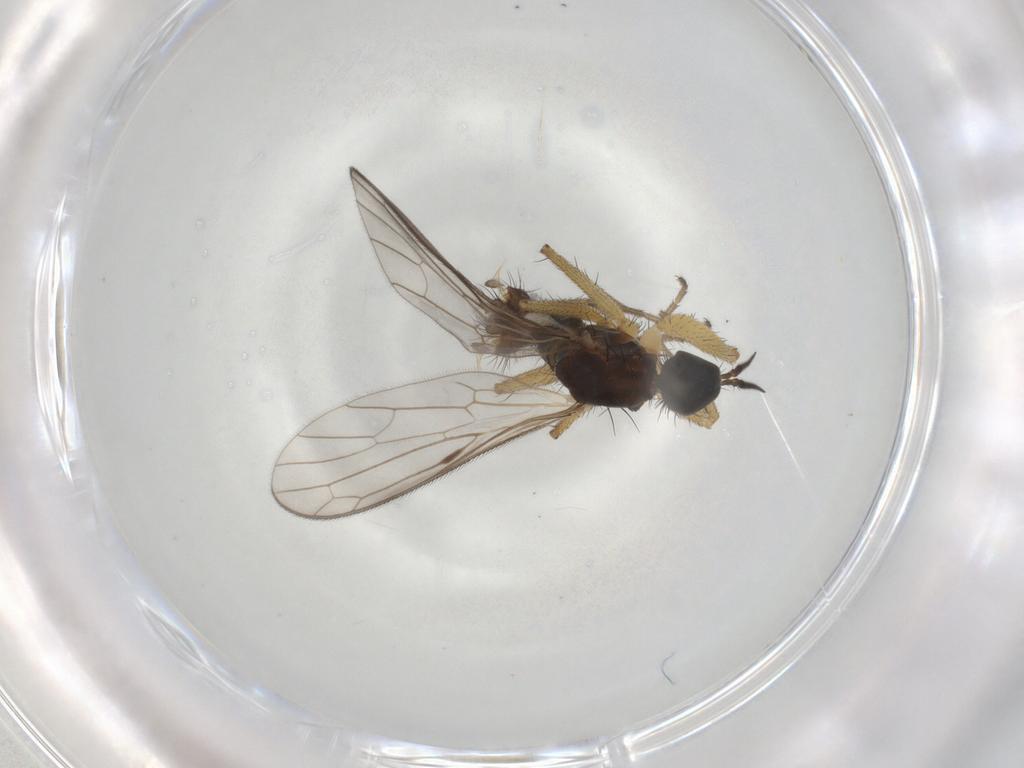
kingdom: Animalia
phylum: Arthropoda
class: Insecta
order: Diptera
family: Chironomidae
